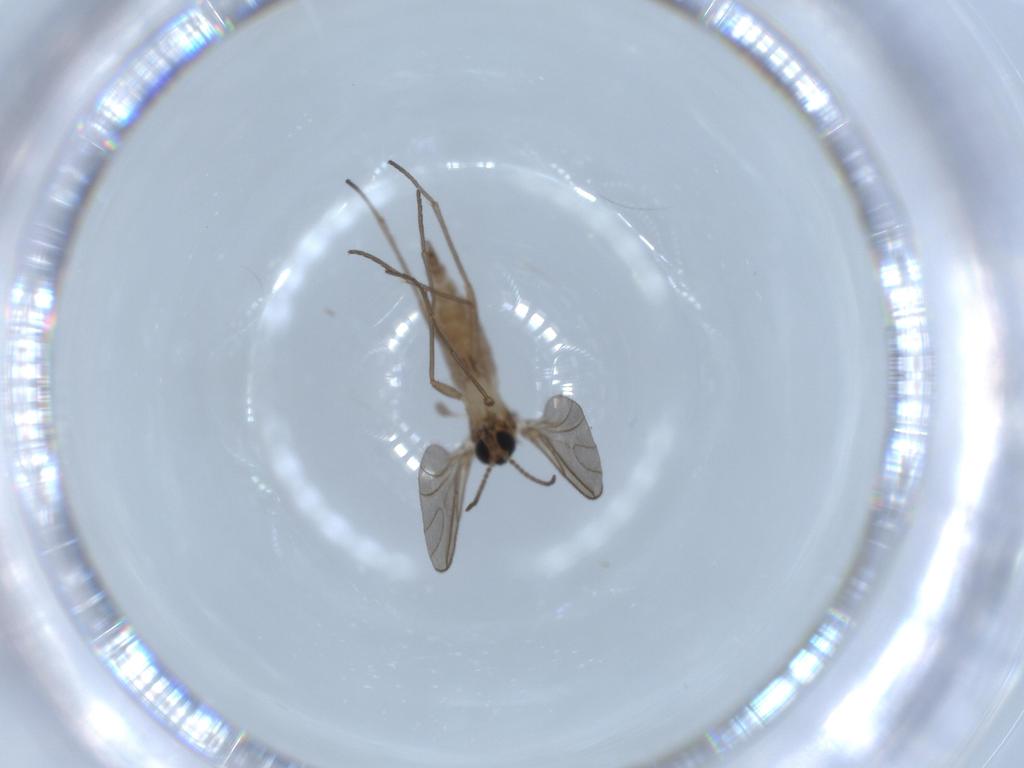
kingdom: Animalia
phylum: Arthropoda
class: Insecta
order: Diptera
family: Sciaridae
